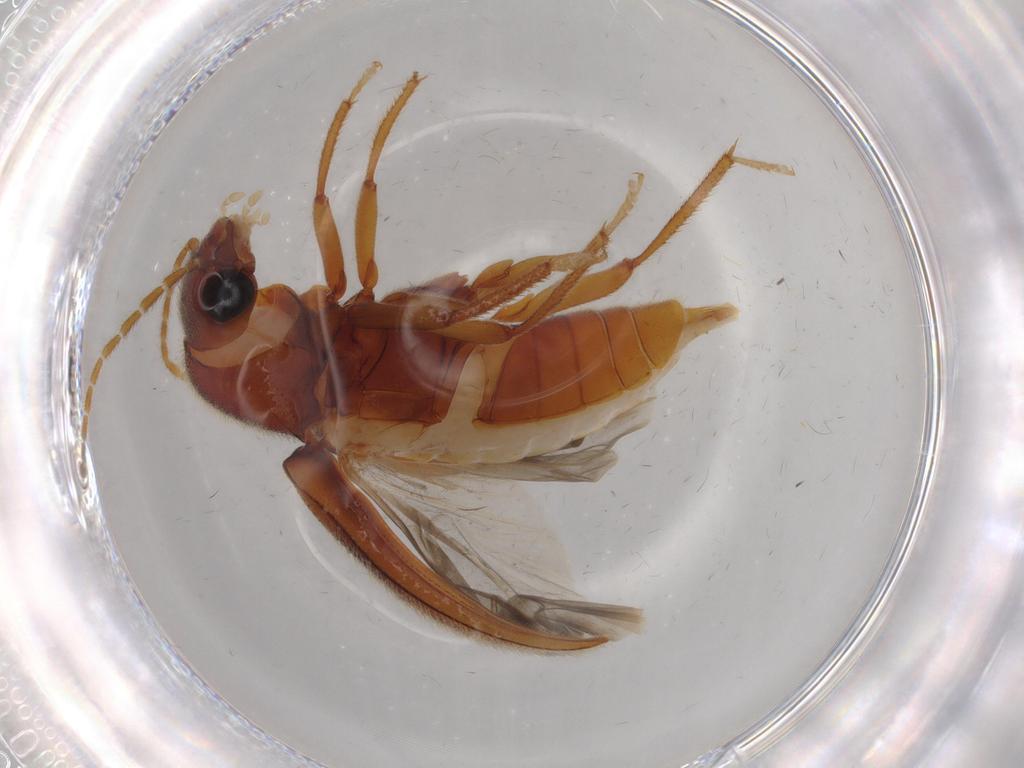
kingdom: Animalia
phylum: Arthropoda
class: Insecta
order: Coleoptera
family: Ptilodactylidae
